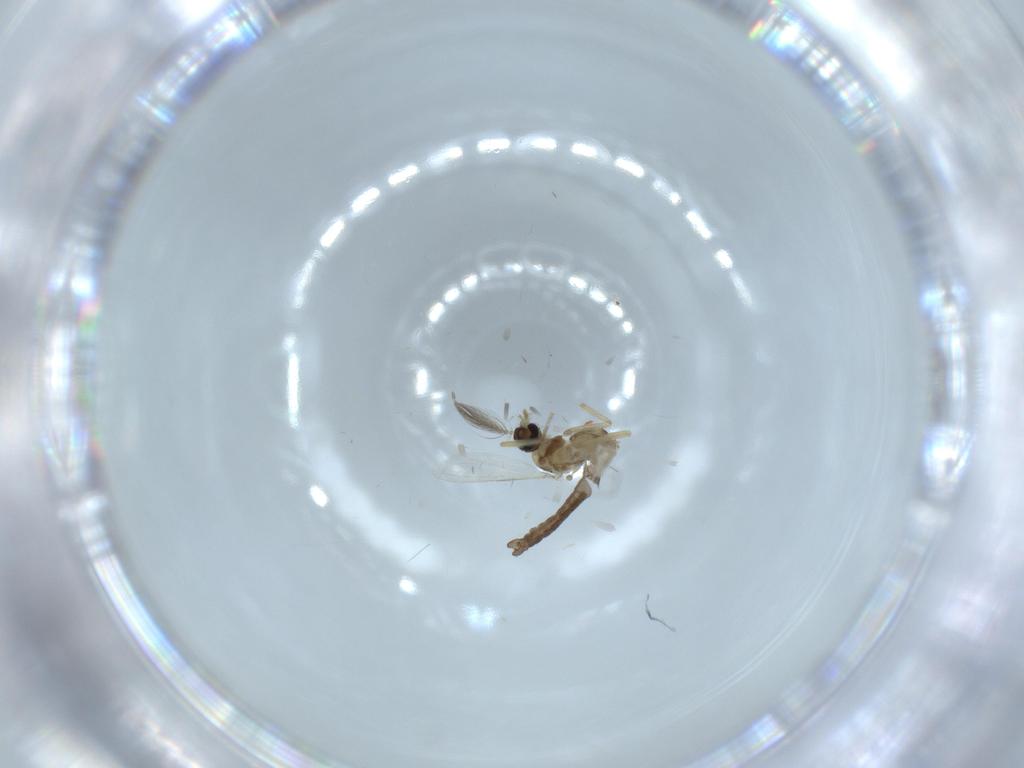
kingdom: Animalia
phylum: Arthropoda
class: Insecta
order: Diptera
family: Ceratopogonidae
